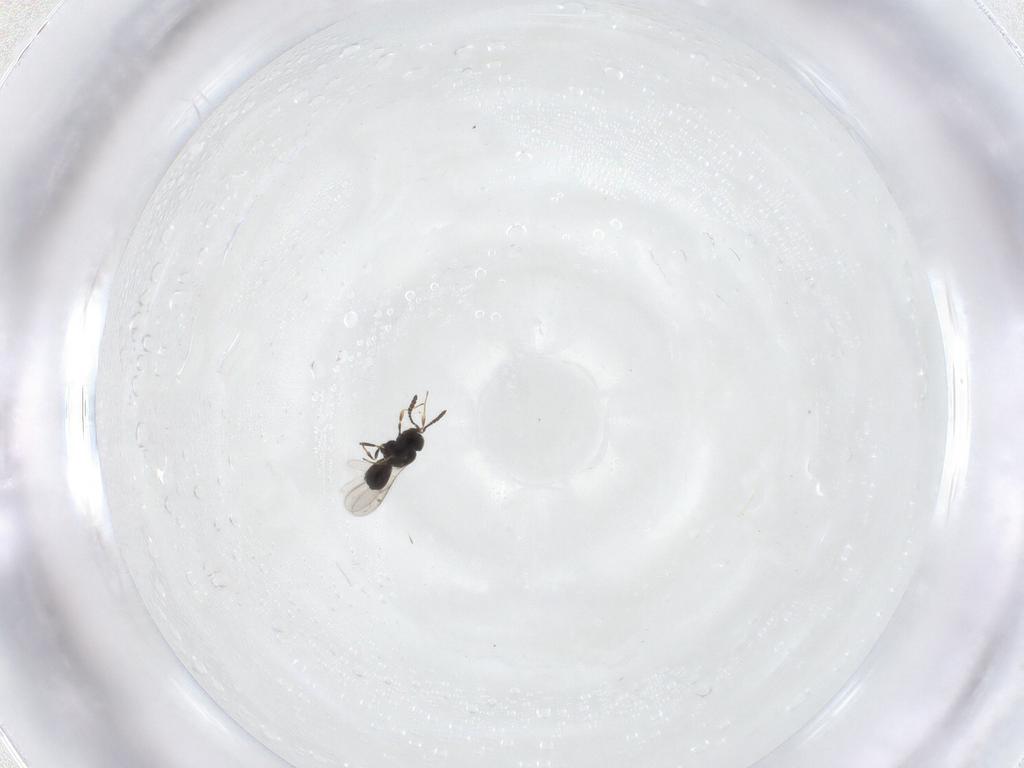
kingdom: Animalia
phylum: Arthropoda
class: Insecta
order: Hymenoptera
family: Scelionidae
